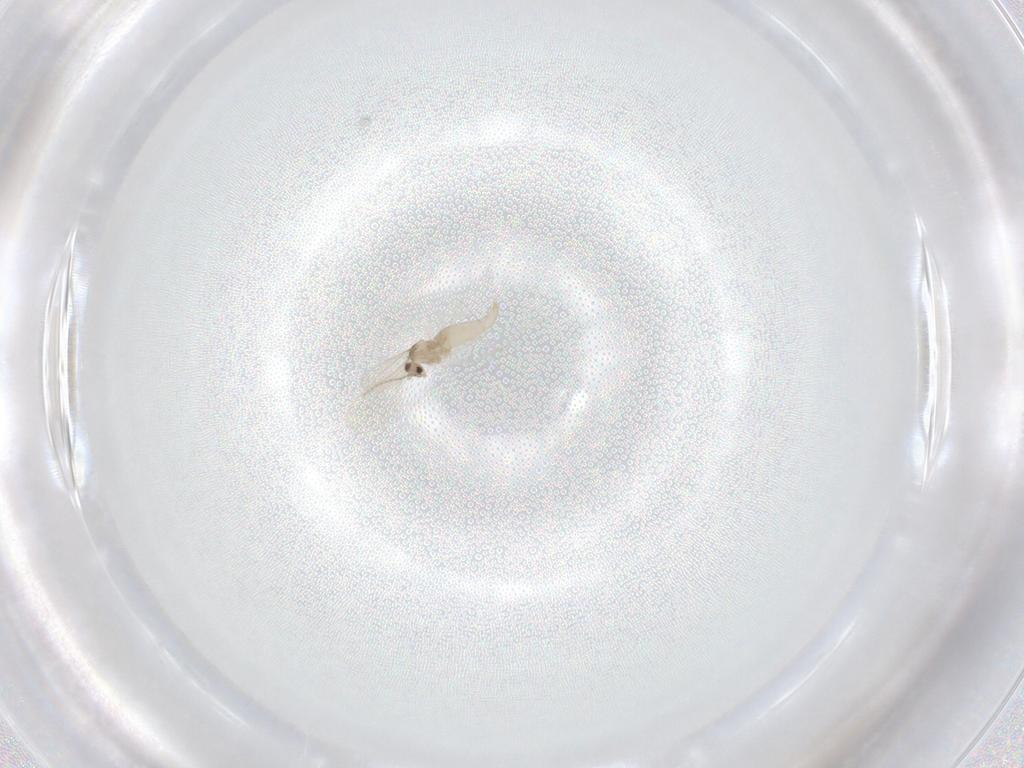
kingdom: Animalia
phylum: Arthropoda
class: Insecta
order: Diptera
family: Cecidomyiidae
